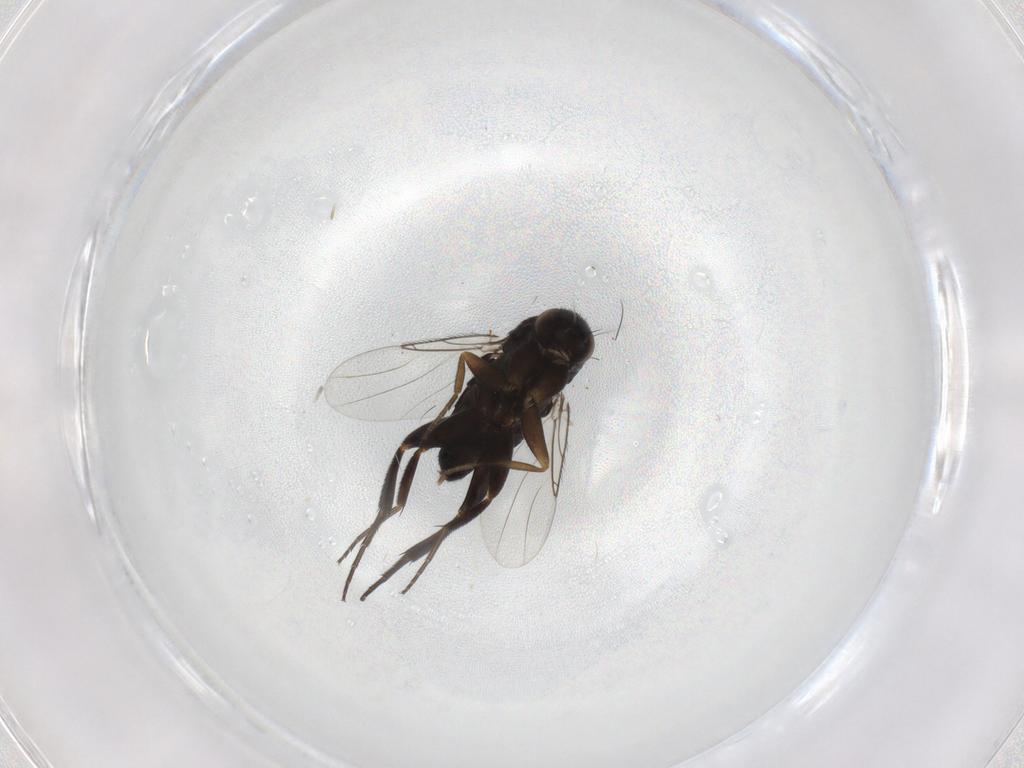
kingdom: Animalia
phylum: Arthropoda
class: Insecta
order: Diptera
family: Phoridae
